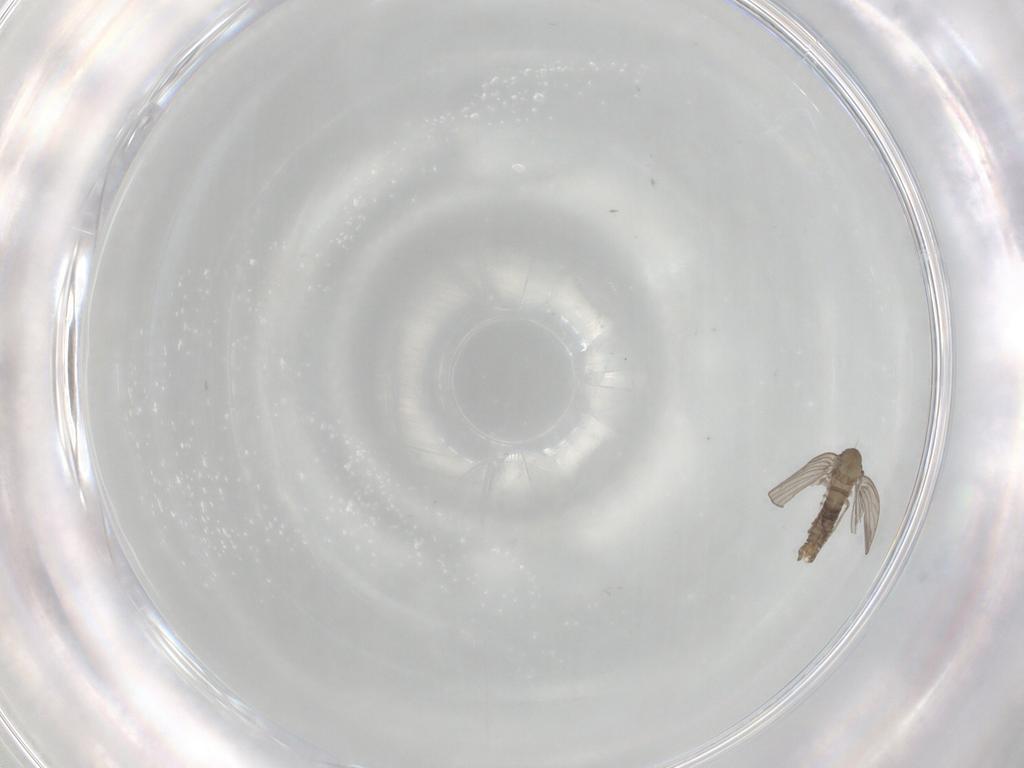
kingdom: Animalia
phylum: Arthropoda
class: Insecta
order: Diptera
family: Psychodidae
